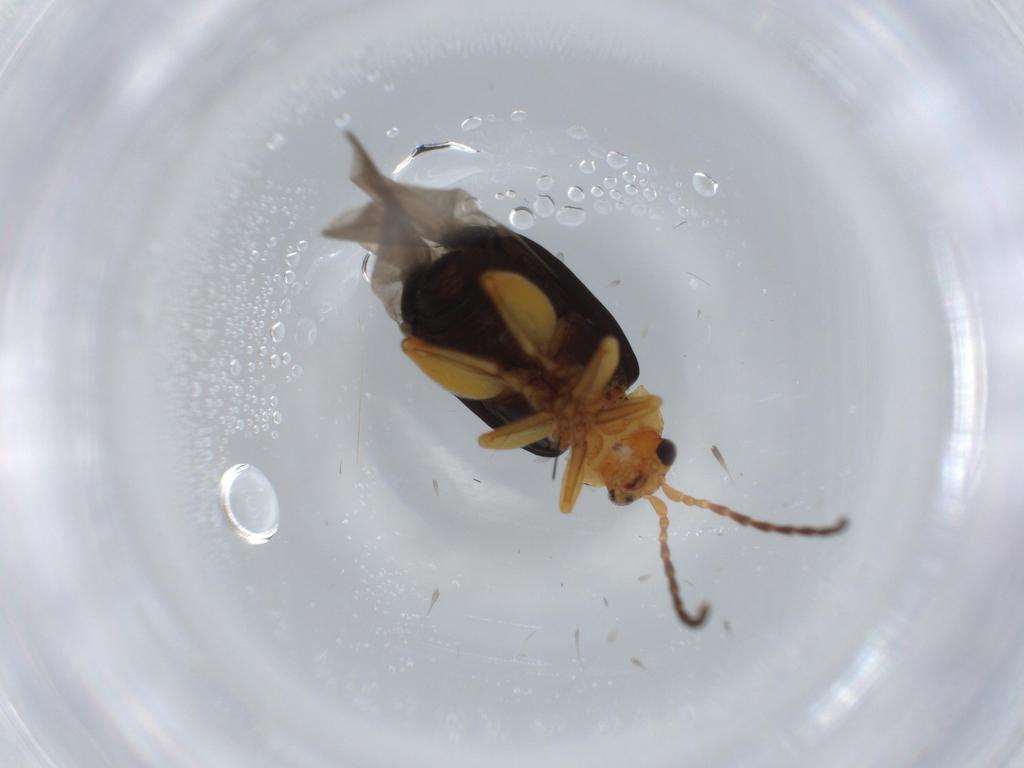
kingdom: Animalia
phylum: Arthropoda
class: Insecta
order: Coleoptera
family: Chrysomelidae
